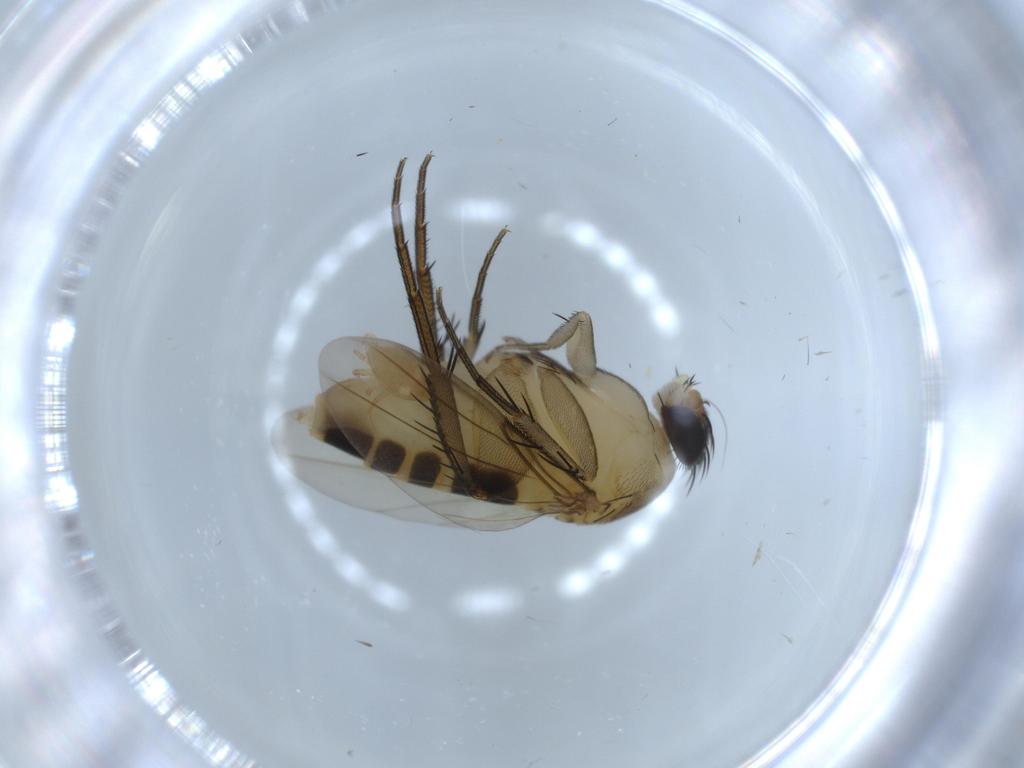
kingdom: Animalia
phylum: Arthropoda
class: Insecta
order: Diptera
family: Phoridae
